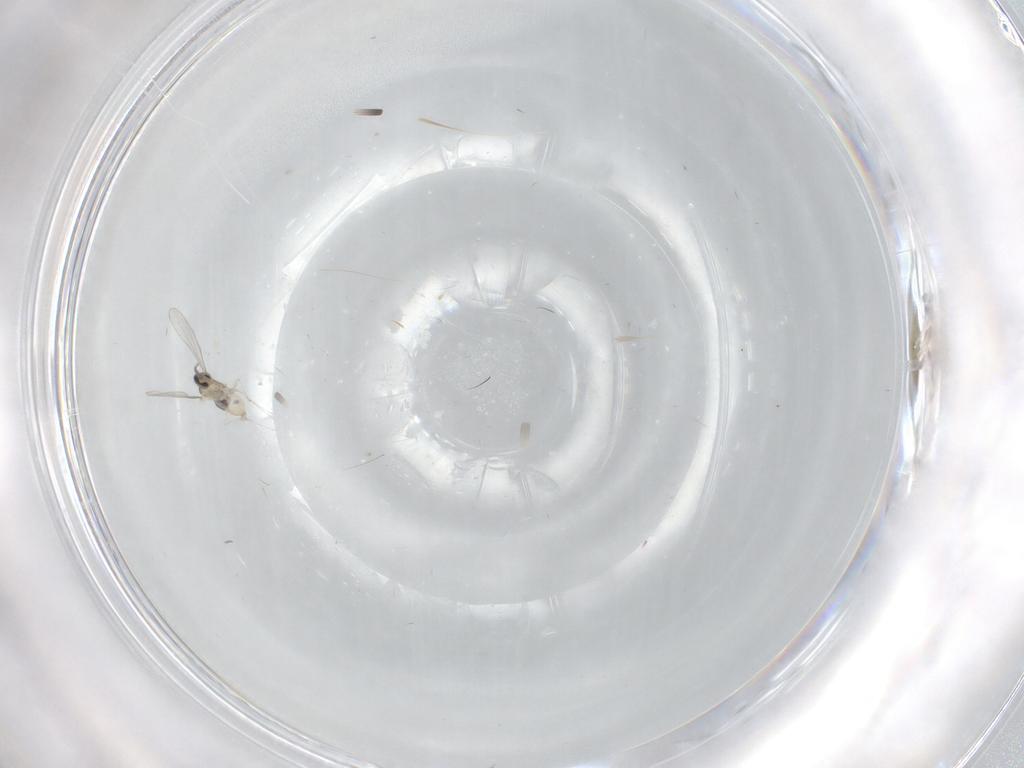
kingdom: Animalia
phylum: Arthropoda
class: Insecta
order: Diptera
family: Cecidomyiidae
